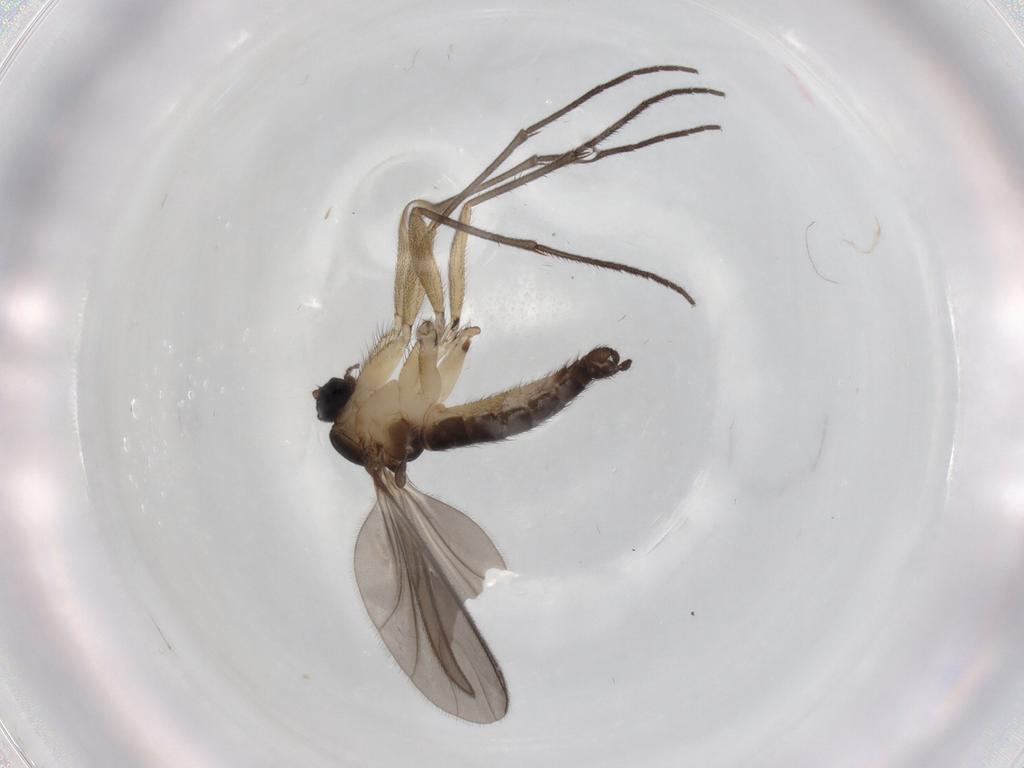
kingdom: Animalia
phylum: Arthropoda
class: Insecta
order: Diptera
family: Sciaridae
